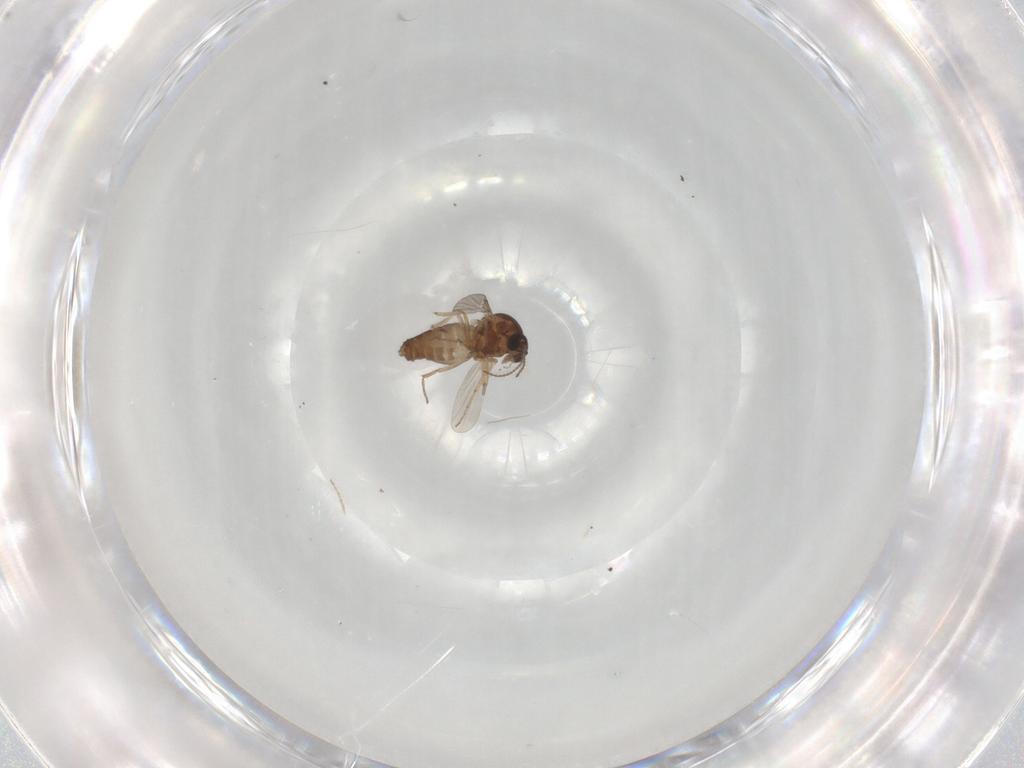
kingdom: Animalia
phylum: Arthropoda
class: Insecta
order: Diptera
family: Ceratopogonidae
